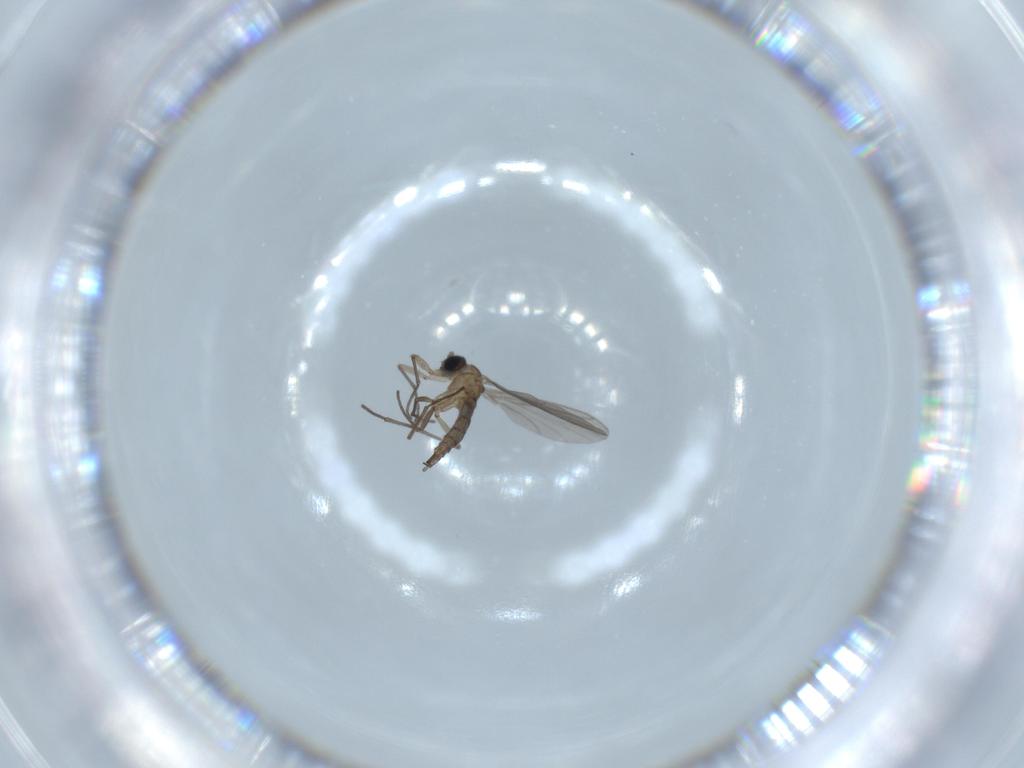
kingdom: Animalia
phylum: Arthropoda
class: Insecta
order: Diptera
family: Dolichopodidae
